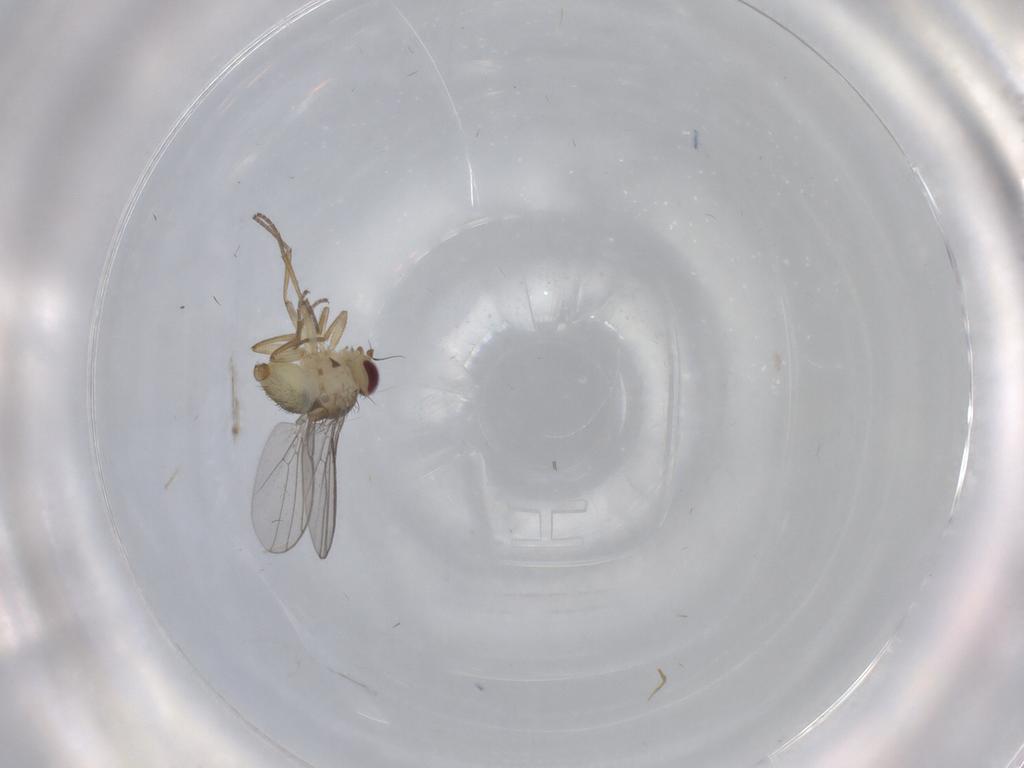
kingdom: Animalia
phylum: Arthropoda
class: Insecta
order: Diptera
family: Agromyzidae
